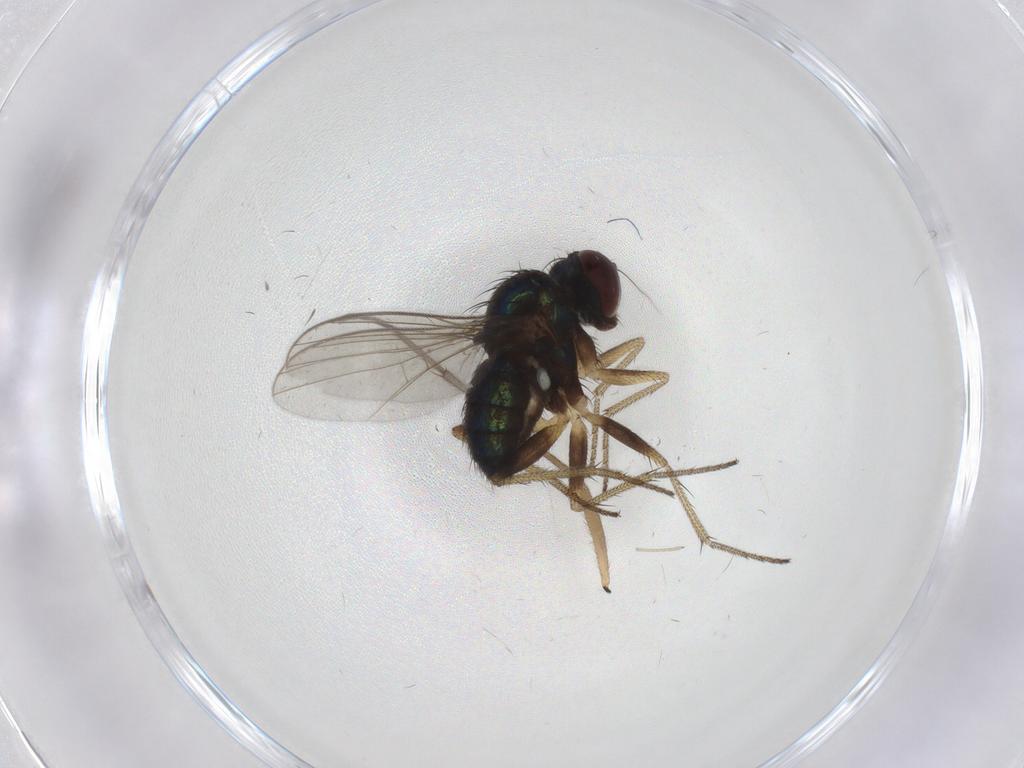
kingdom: Animalia
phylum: Arthropoda
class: Insecta
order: Diptera
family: Dolichopodidae
